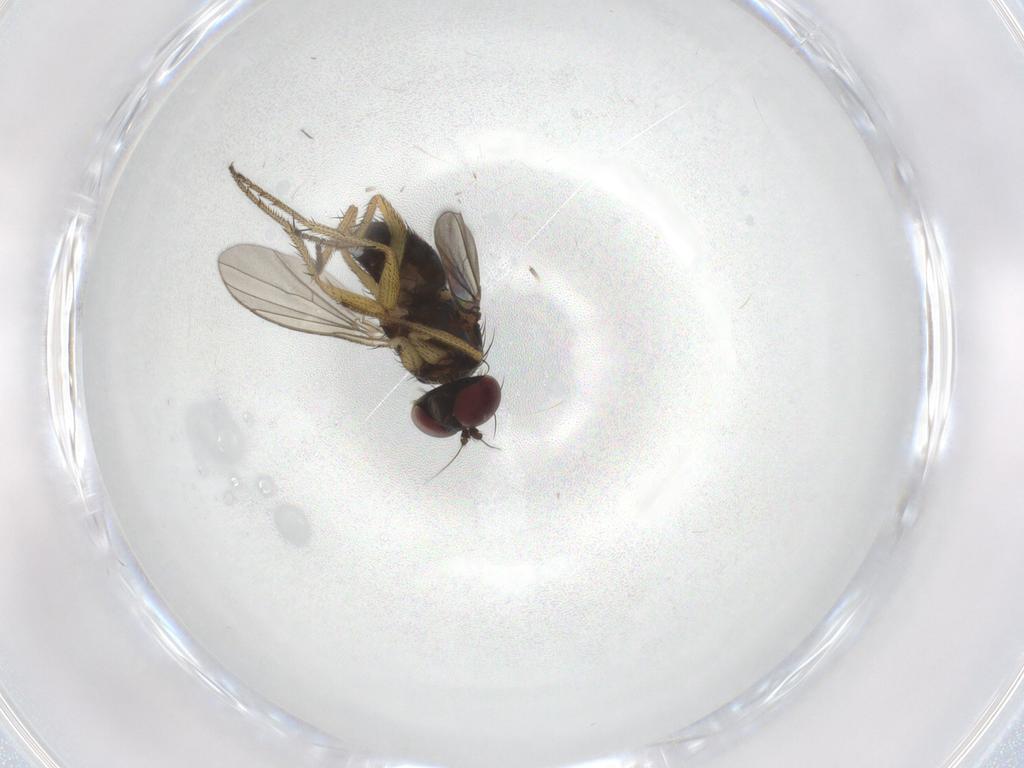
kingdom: Animalia
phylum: Arthropoda
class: Insecta
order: Diptera
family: Dolichopodidae
